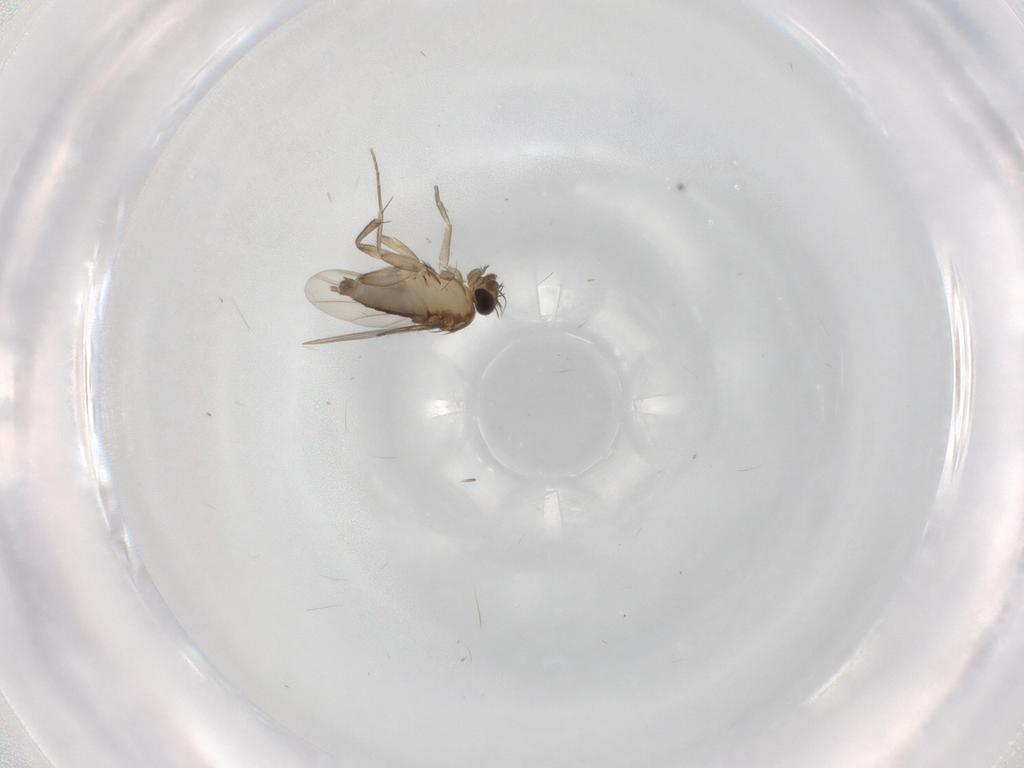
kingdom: Animalia
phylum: Arthropoda
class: Insecta
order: Diptera
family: Phoridae
